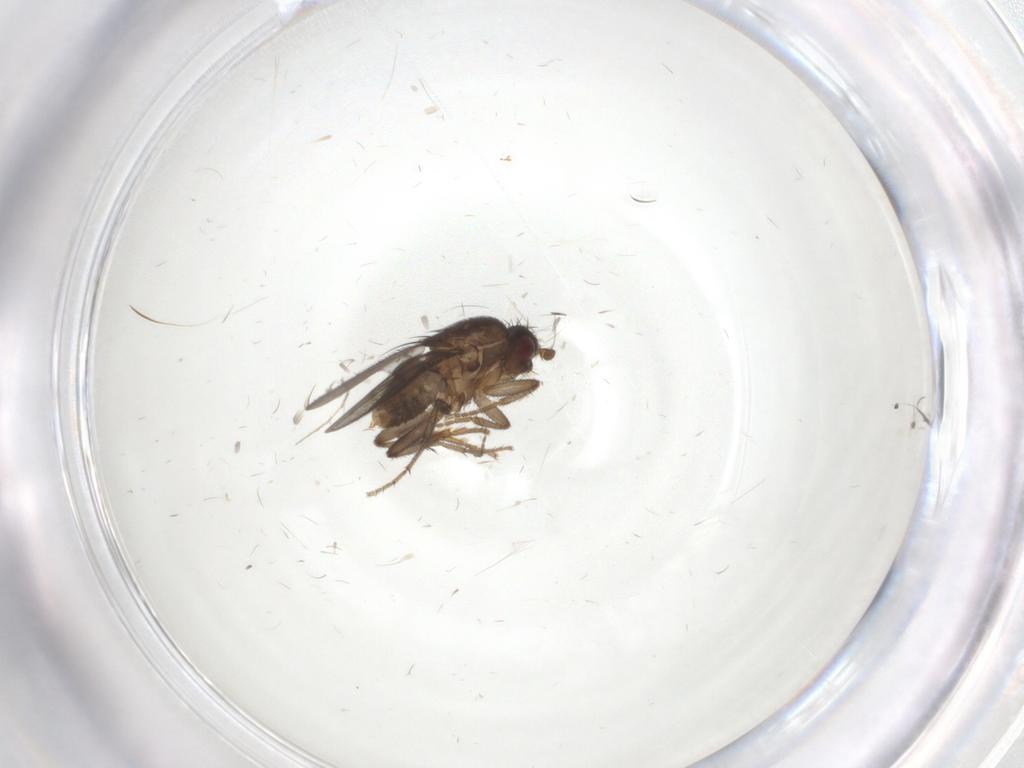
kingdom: Animalia
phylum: Arthropoda
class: Insecta
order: Diptera
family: Sphaeroceridae
